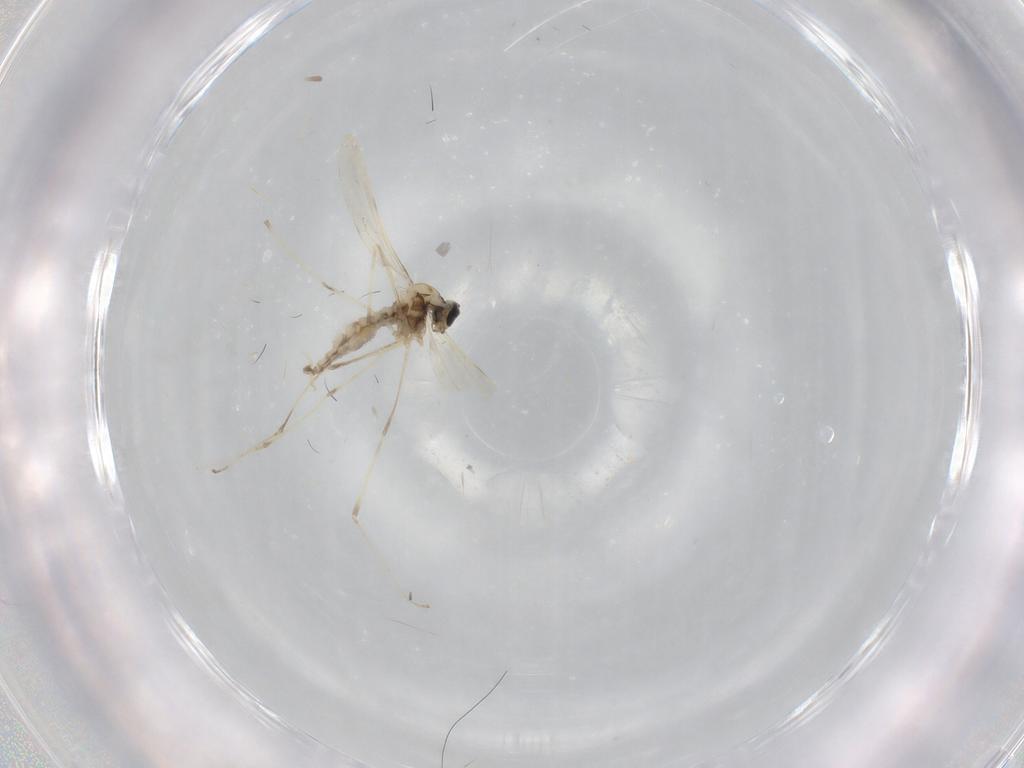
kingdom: Animalia
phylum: Arthropoda
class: Insecta
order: Diptera
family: Cecidomyiidae
